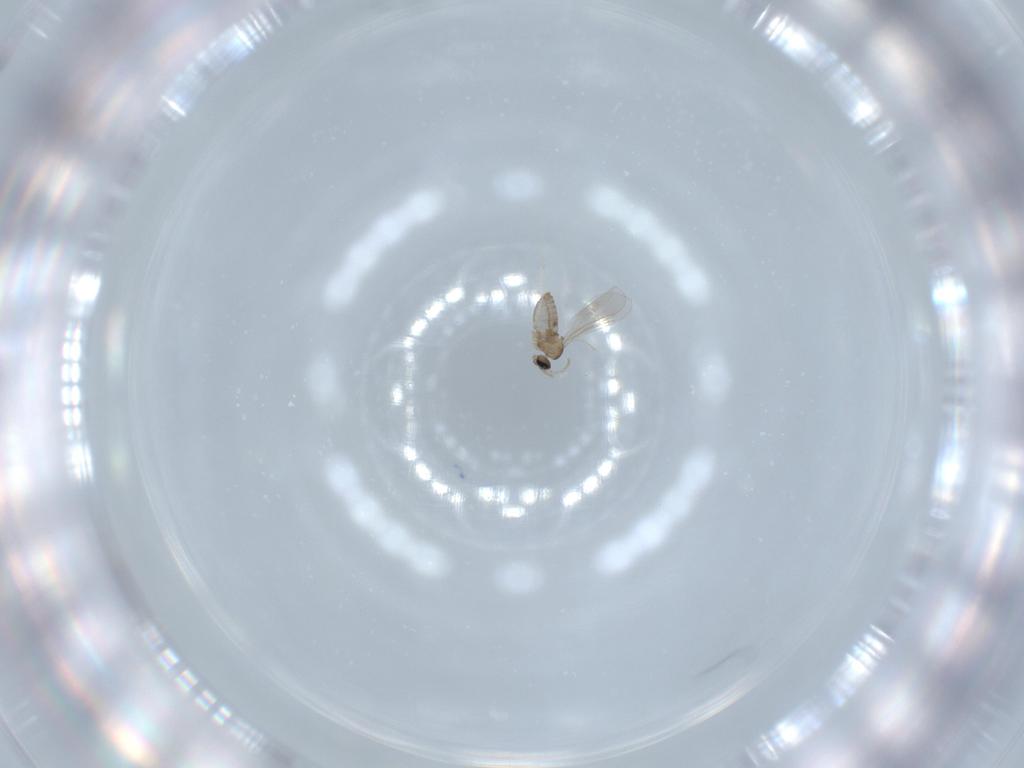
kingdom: Animalia
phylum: Arthropoda
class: Insecta
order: Diptera
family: Cecidomyiidae
